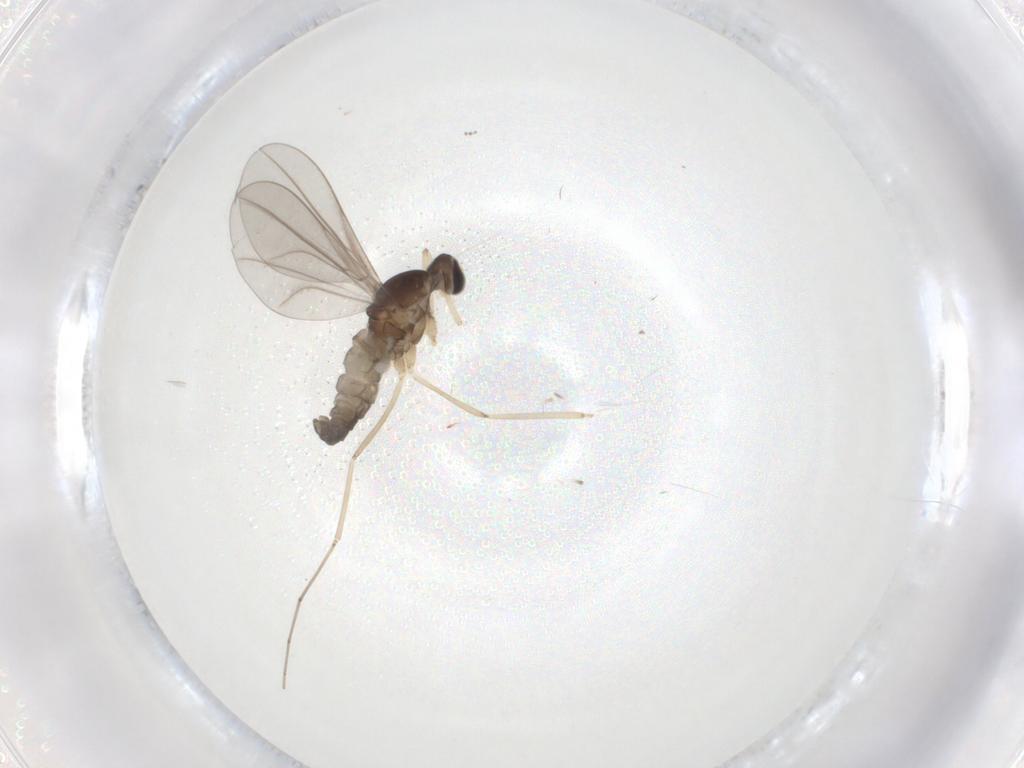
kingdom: Animalia
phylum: Arthropoda
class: Insecta
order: Diptera
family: Cecidomyiidae
